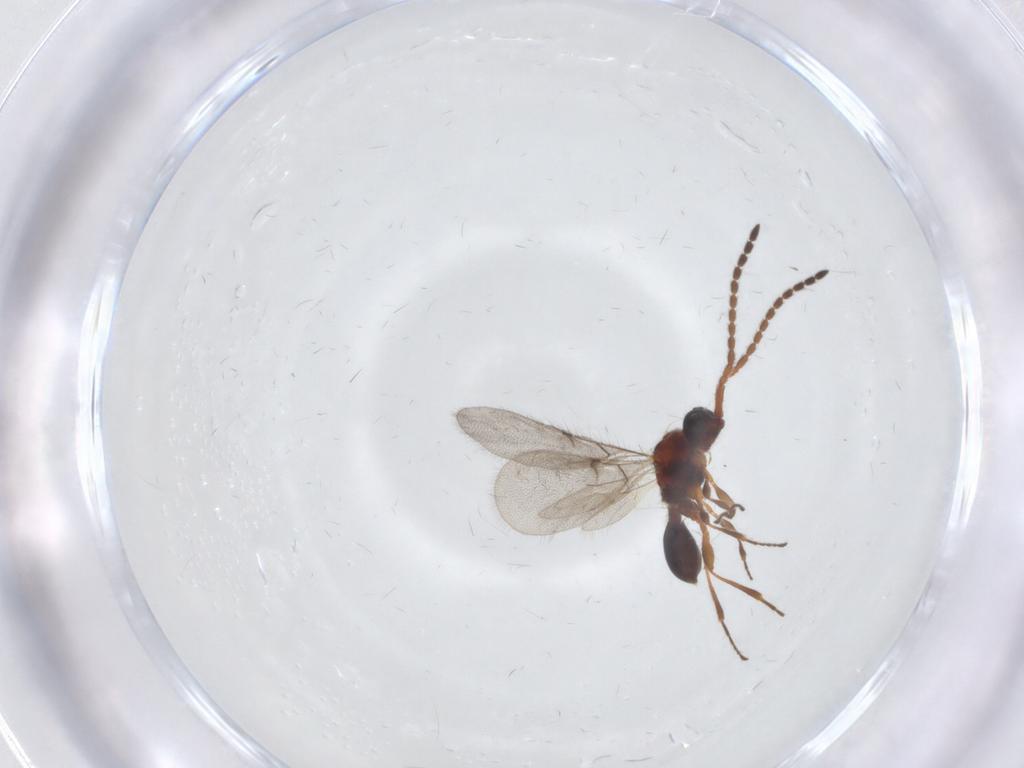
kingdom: Animalia
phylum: Arthropoda
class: Insecta
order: Hymenoptera
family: Diapriidae
